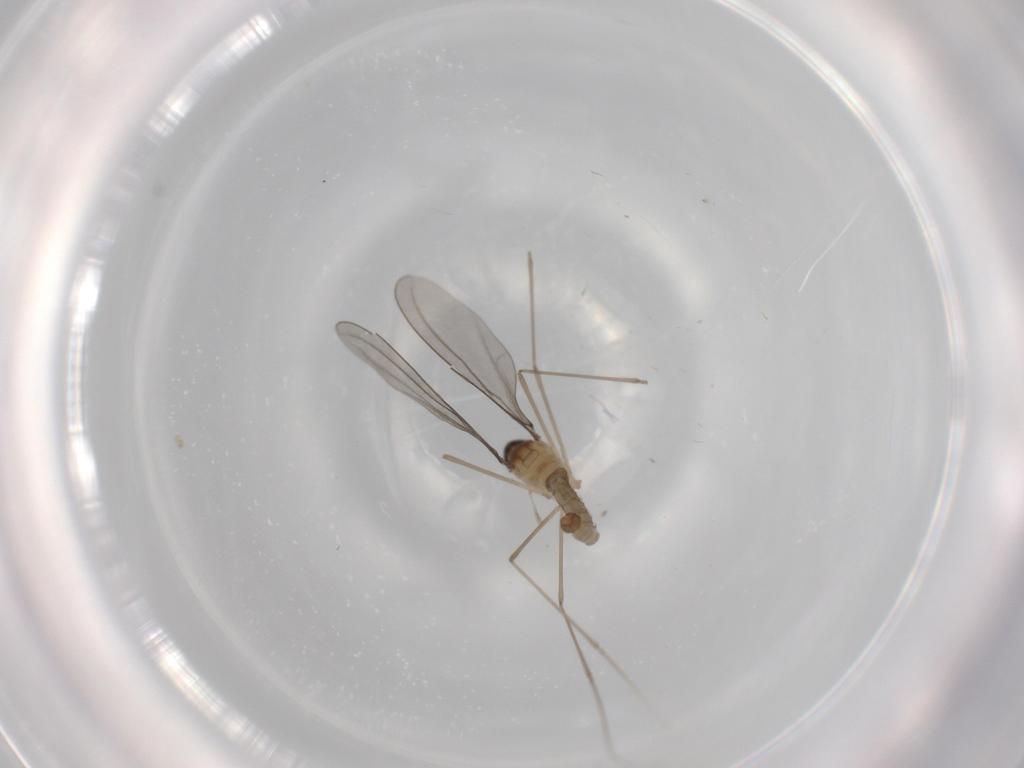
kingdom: Animalia
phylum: Arthropoda
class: Insecta
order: Diptera
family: Cecidomyiidae
